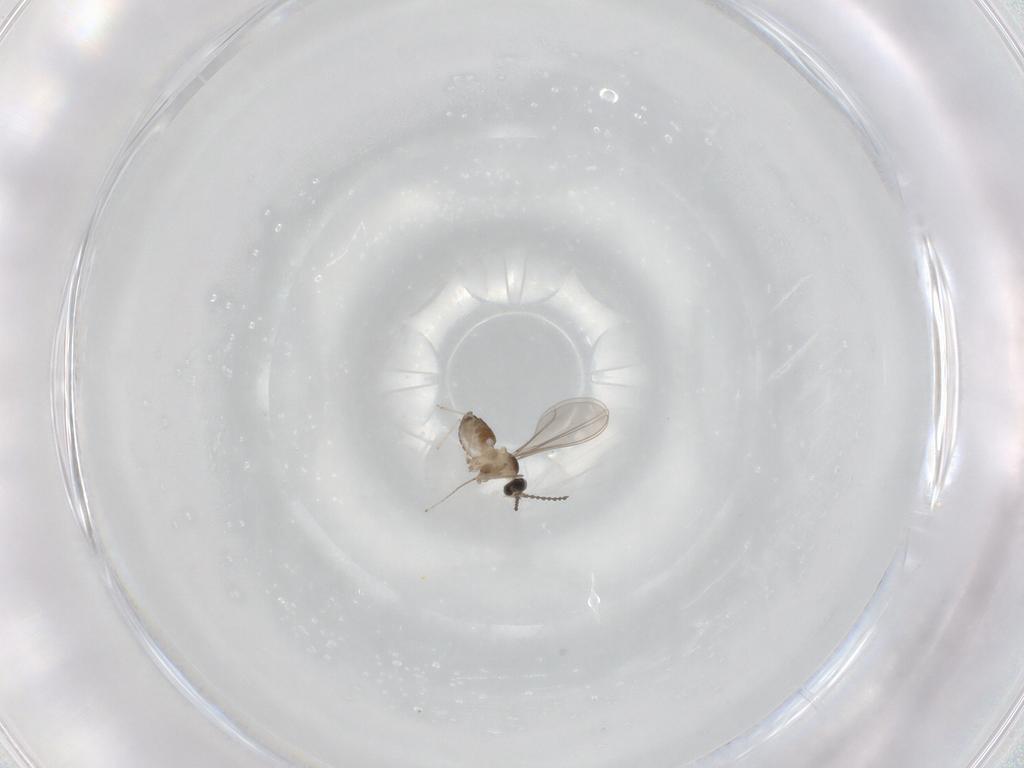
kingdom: Animalia
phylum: Arthropoda
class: Insecta
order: Diptera
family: Cecidomyiidae
